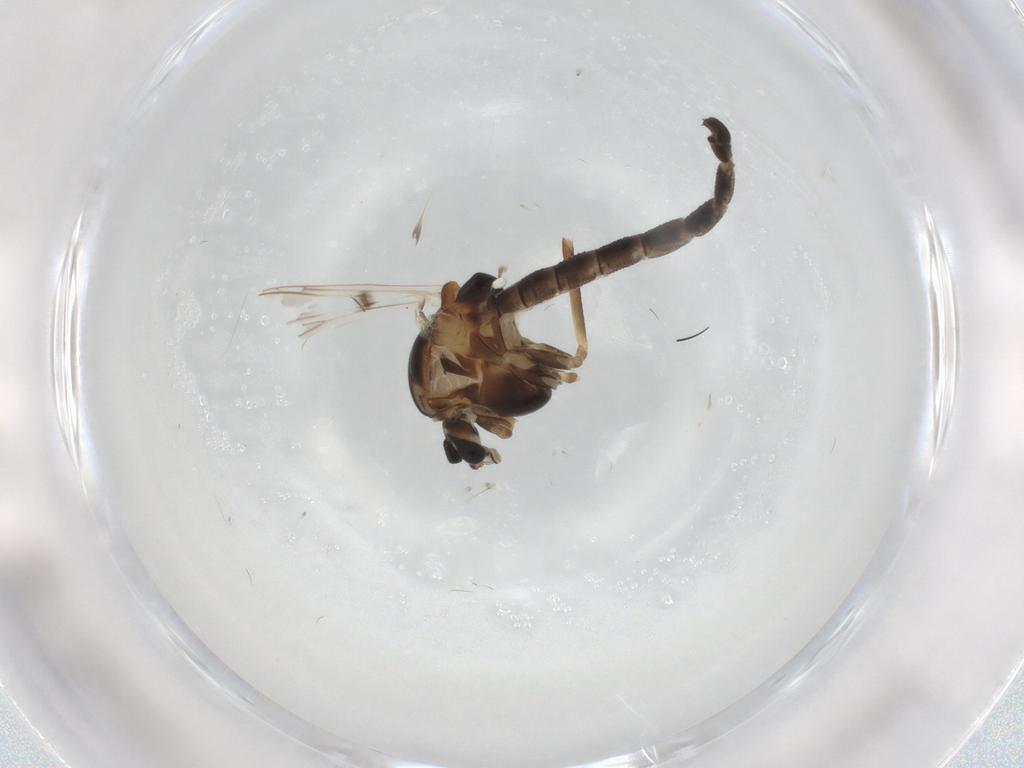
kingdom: Animalia
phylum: Arthropoda
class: Insecta
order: Diptera
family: Chironomidae
